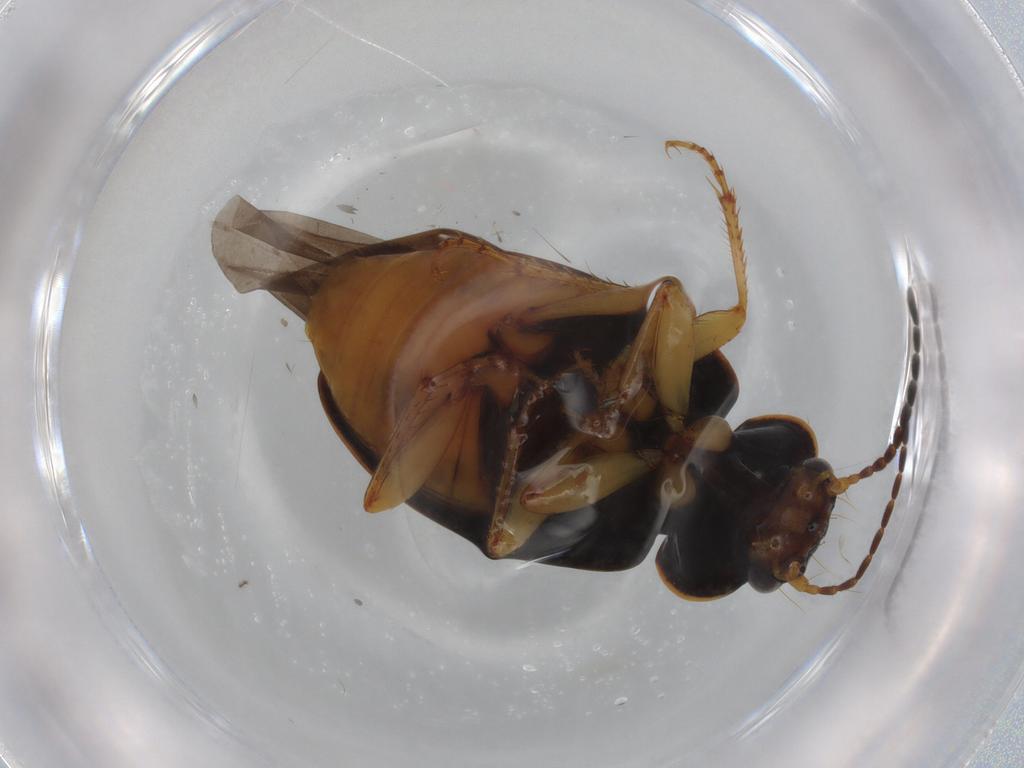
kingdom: Animalia
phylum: Arthropoda
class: Insecta
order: Coleoptera
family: Carabidae
